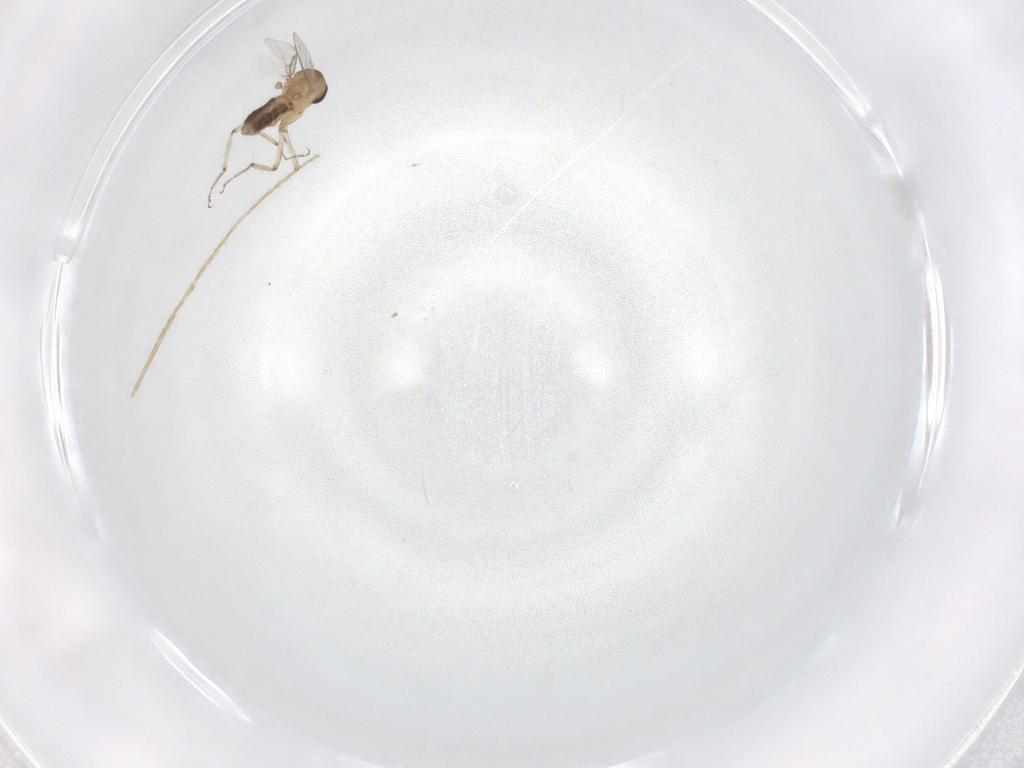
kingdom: Animalia
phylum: Arthropoda
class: Insecta
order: Diptera
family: Ceratopogonidae
